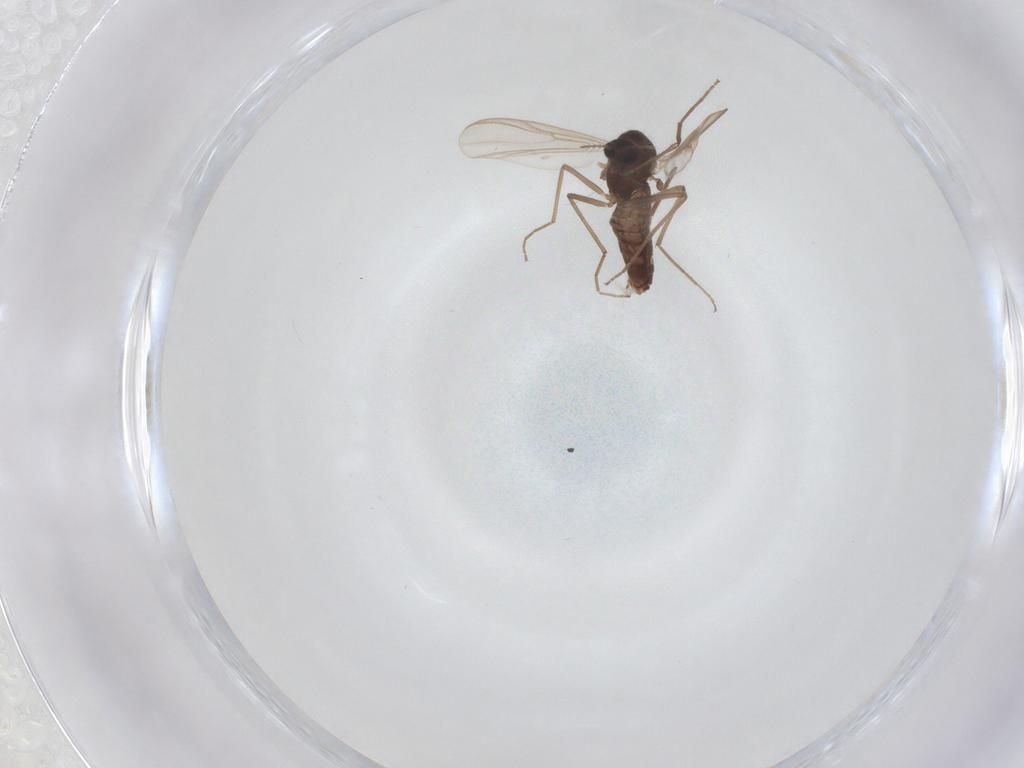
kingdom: Animalia
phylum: Arthropoda
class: Insecta
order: Diptera
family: Chironomidae
